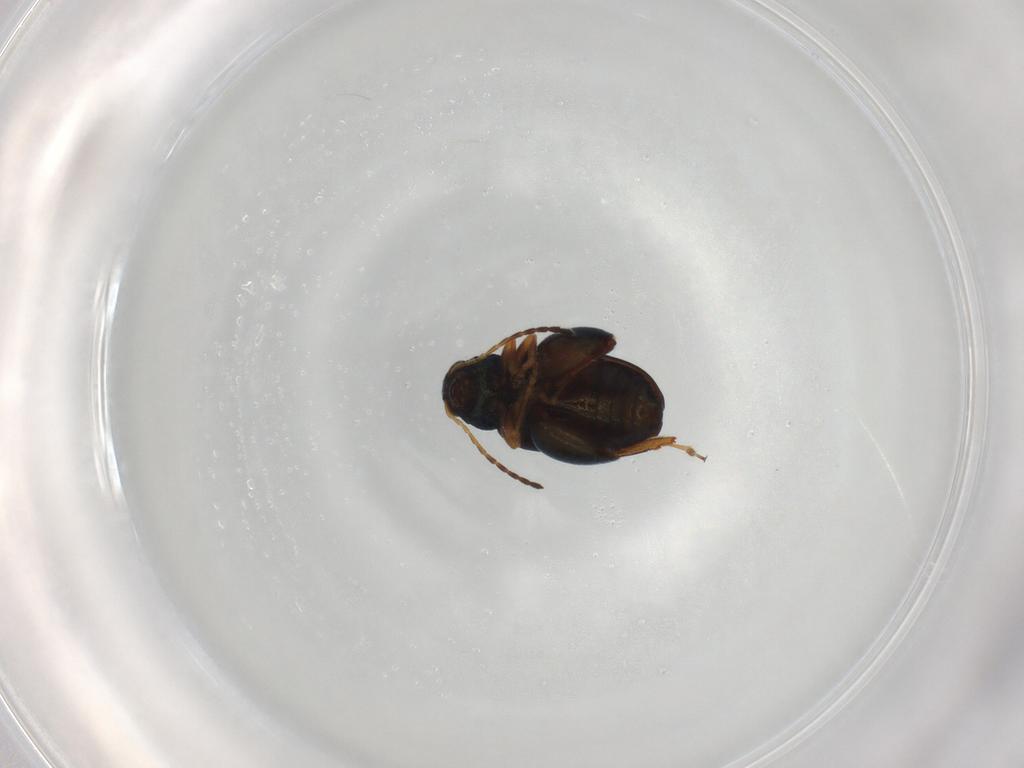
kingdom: Animalia
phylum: Arthropoda
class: Insecta
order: Coleoptera
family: Chrysomelidae
